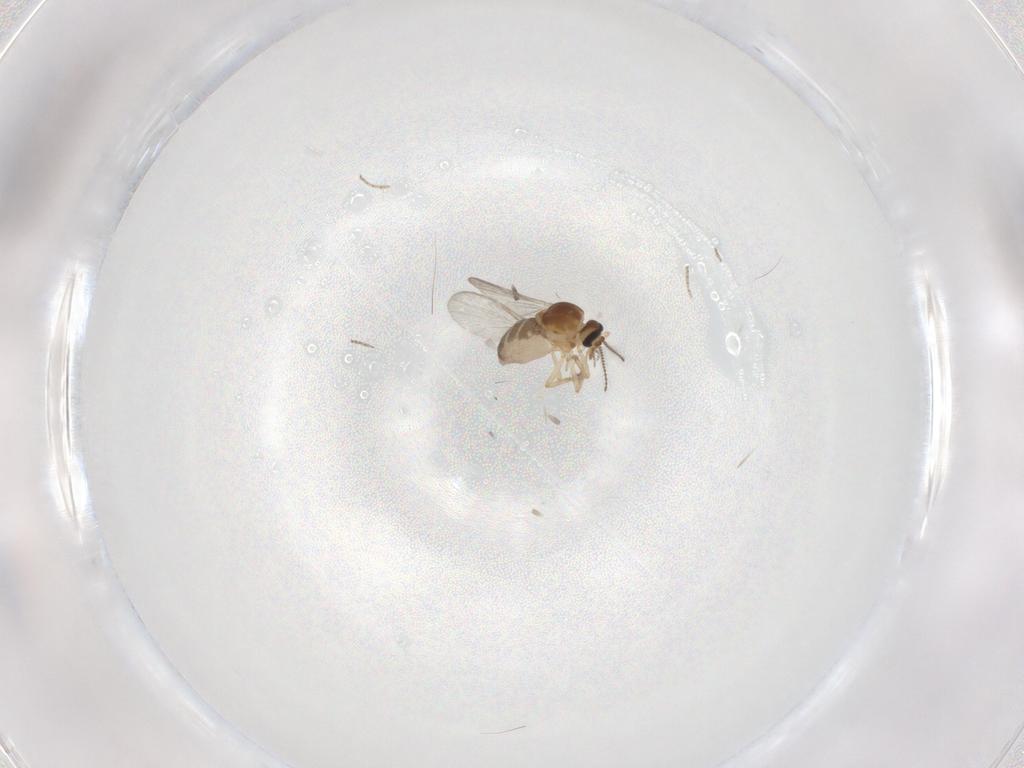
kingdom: Animalia
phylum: Arthropoda
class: Insecta
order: Diptera
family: Ceratopogonidae
